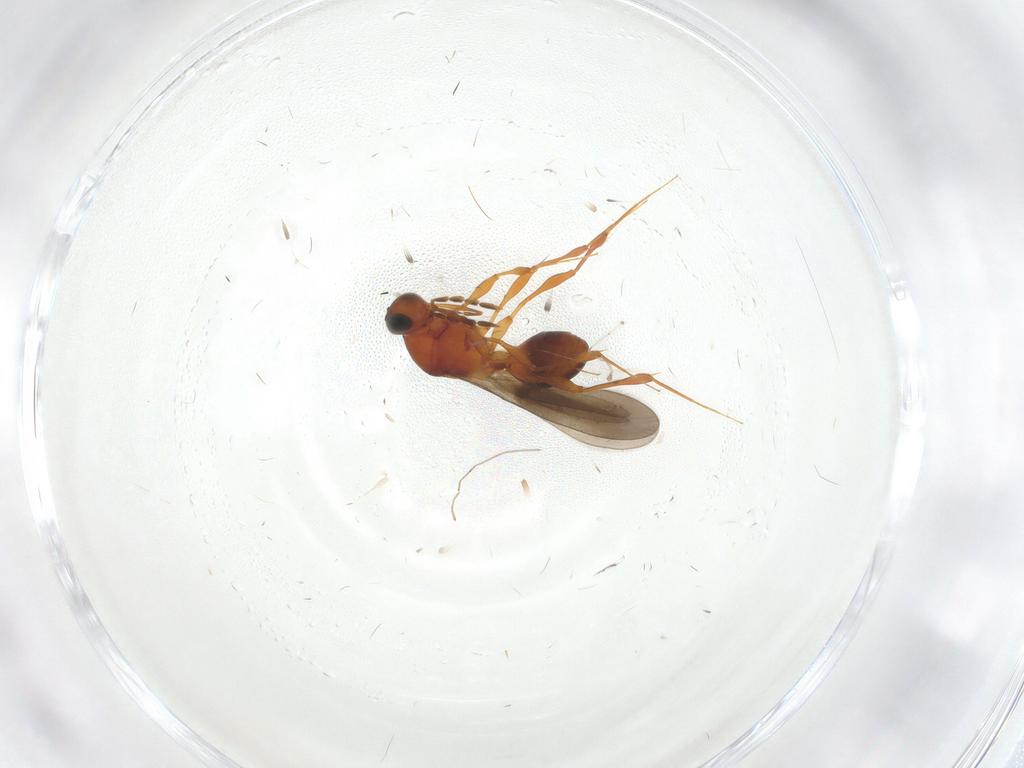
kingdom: Animalia
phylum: Arthropoda
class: Insecta
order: Hymenoptera
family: Platygastridae
